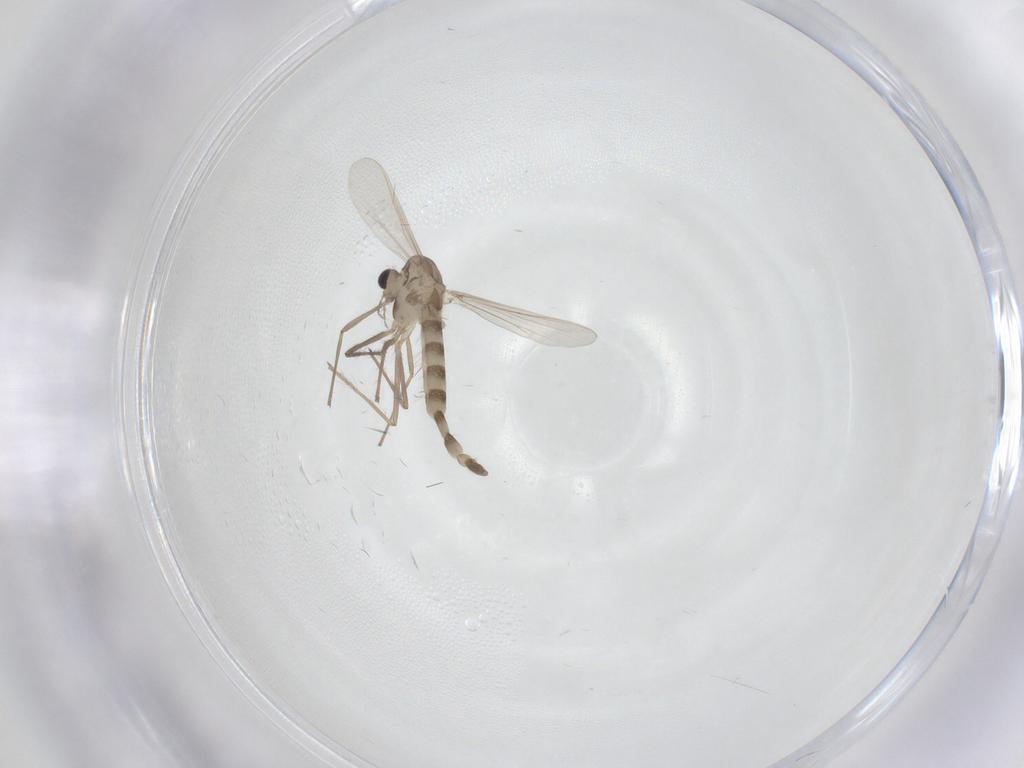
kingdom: Animalia
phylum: Arthropoda
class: Insecta
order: Diptera
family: Chironomidae
